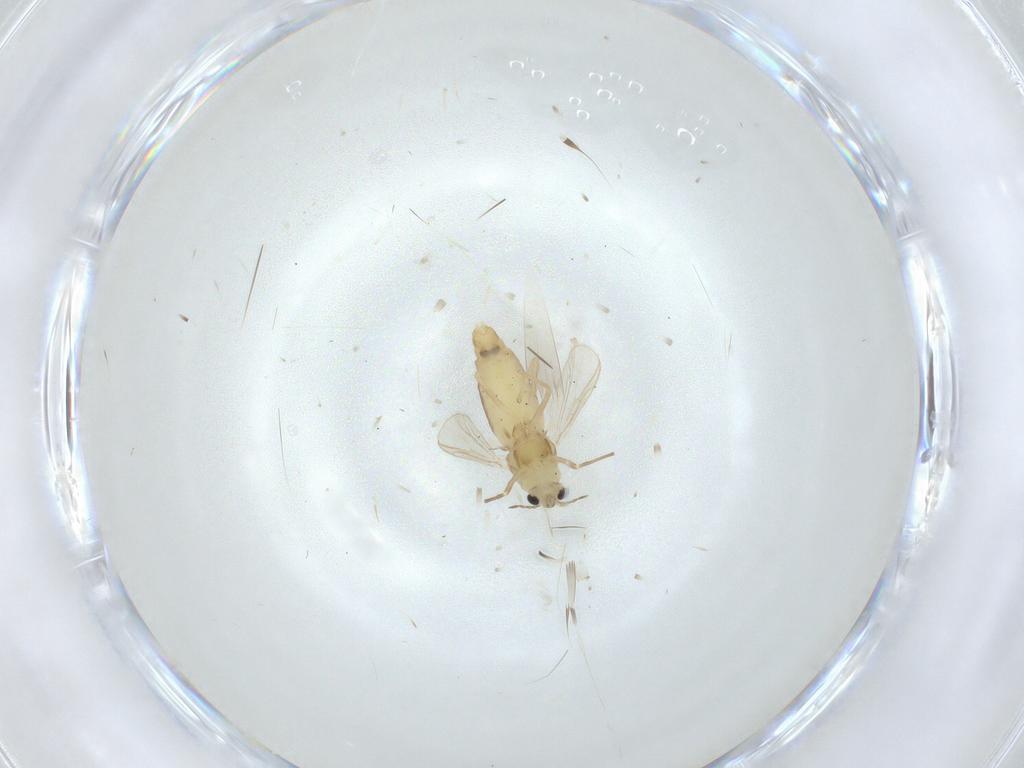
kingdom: Animalia
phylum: Arthropoda
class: Insecta
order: Diptera
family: Chironomidae
